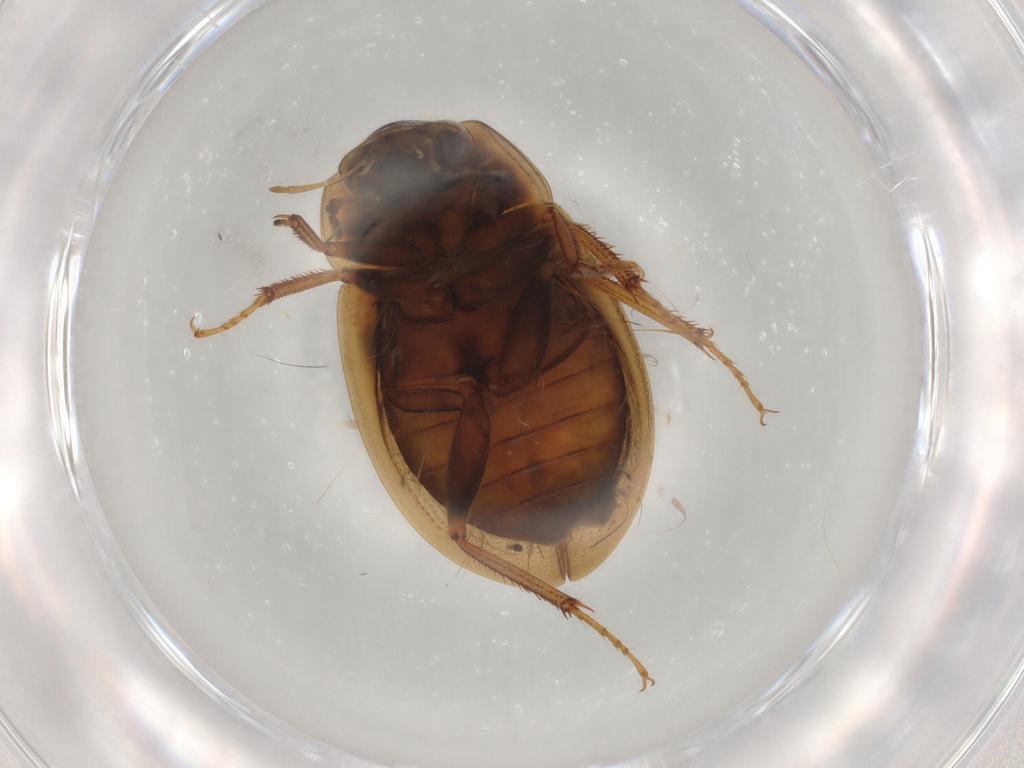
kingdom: Animalia
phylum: Arthropoda
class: Insecta
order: Coleoptera
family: Hydrophilidae
